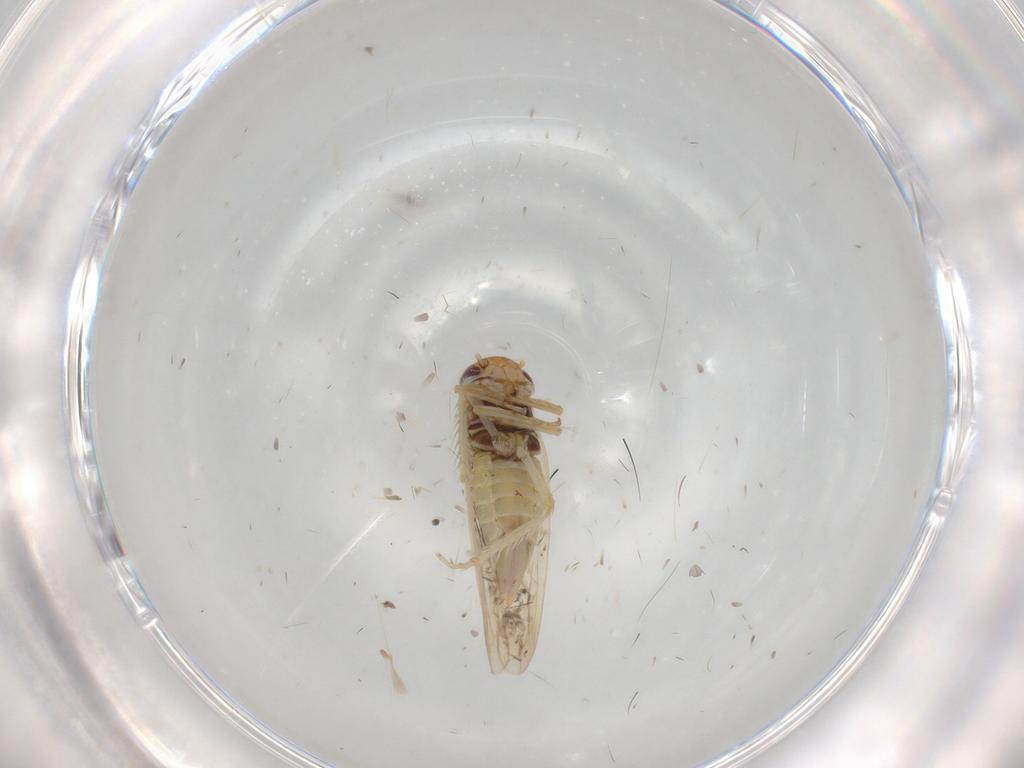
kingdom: Animalia
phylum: Arthropoda
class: Insecta
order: Hemiptera
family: Cicadellidae
